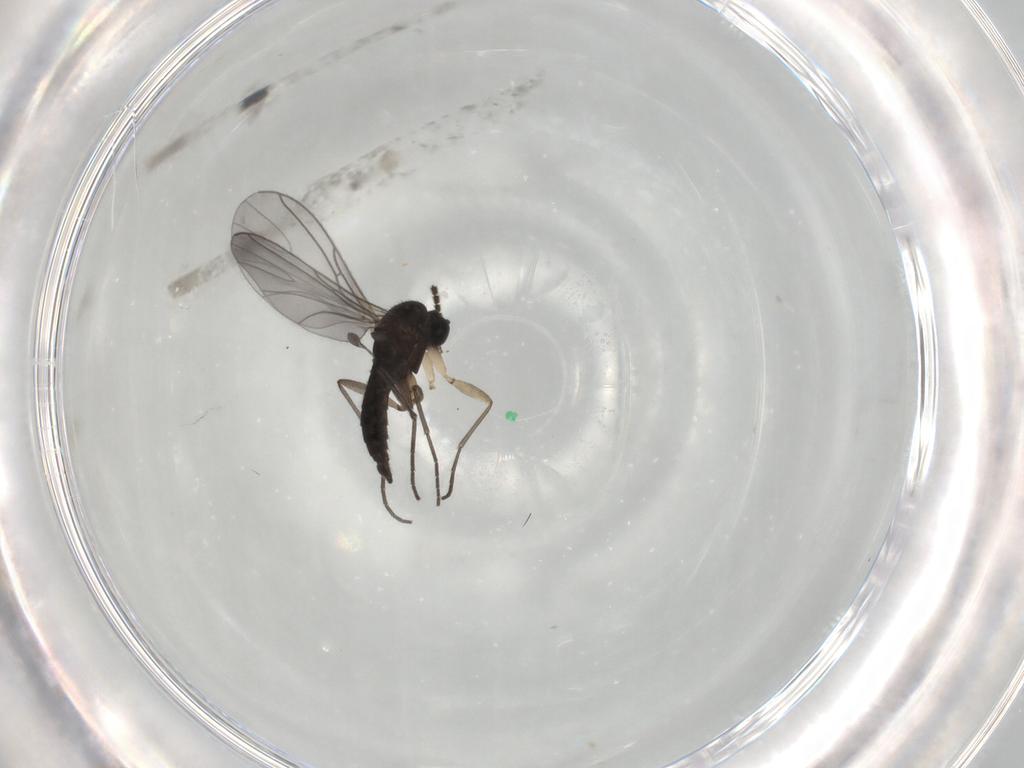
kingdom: Animalia
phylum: Arthropoda
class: Insecta
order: Diptera
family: Sciaridae
